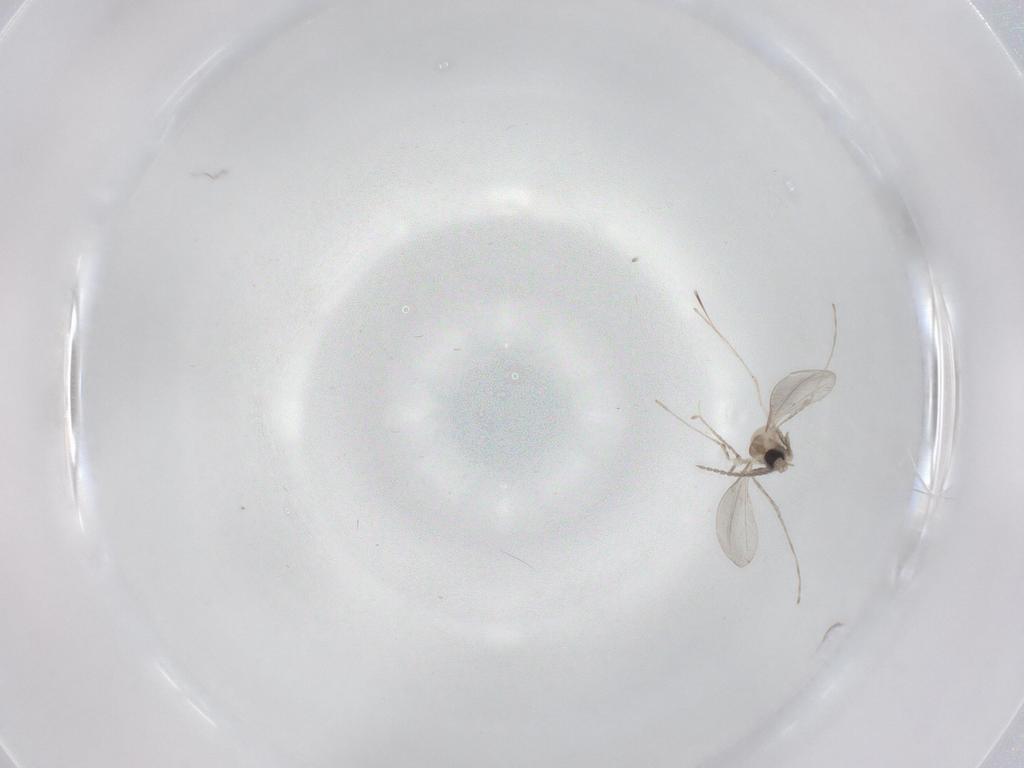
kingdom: Animalia
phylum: Arthropoda
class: Insecta
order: Diptera
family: Cecidomyiidae
